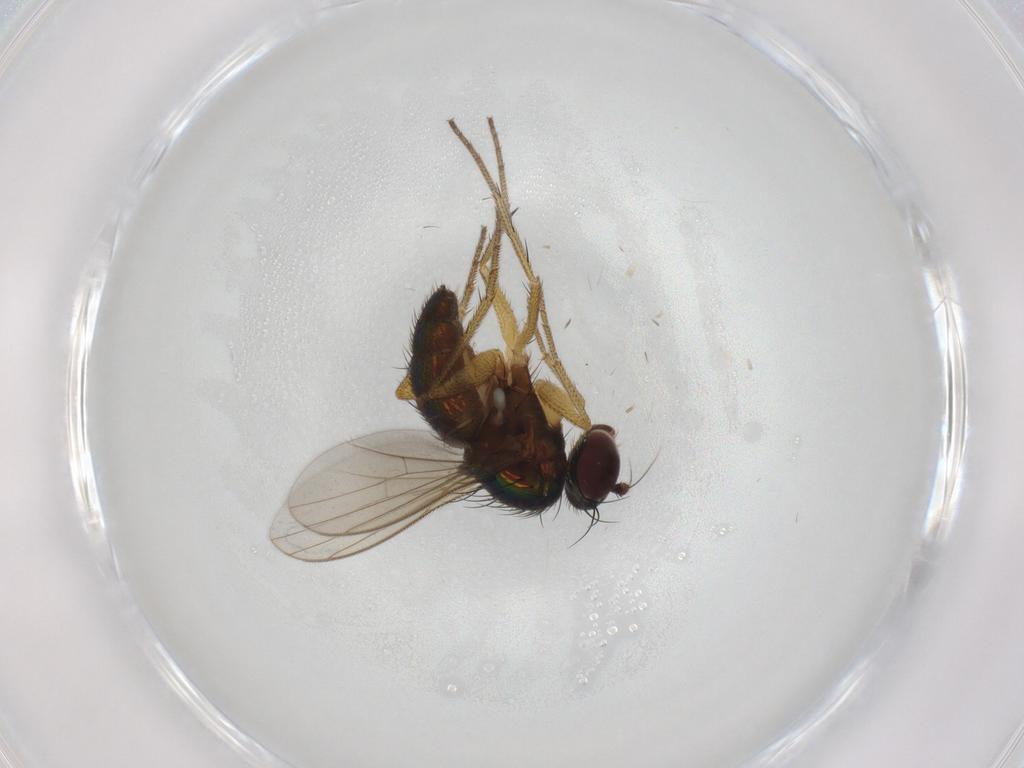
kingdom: Animalia
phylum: Arthropoda
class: Insecta
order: Diptera
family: Dolichopodidae
